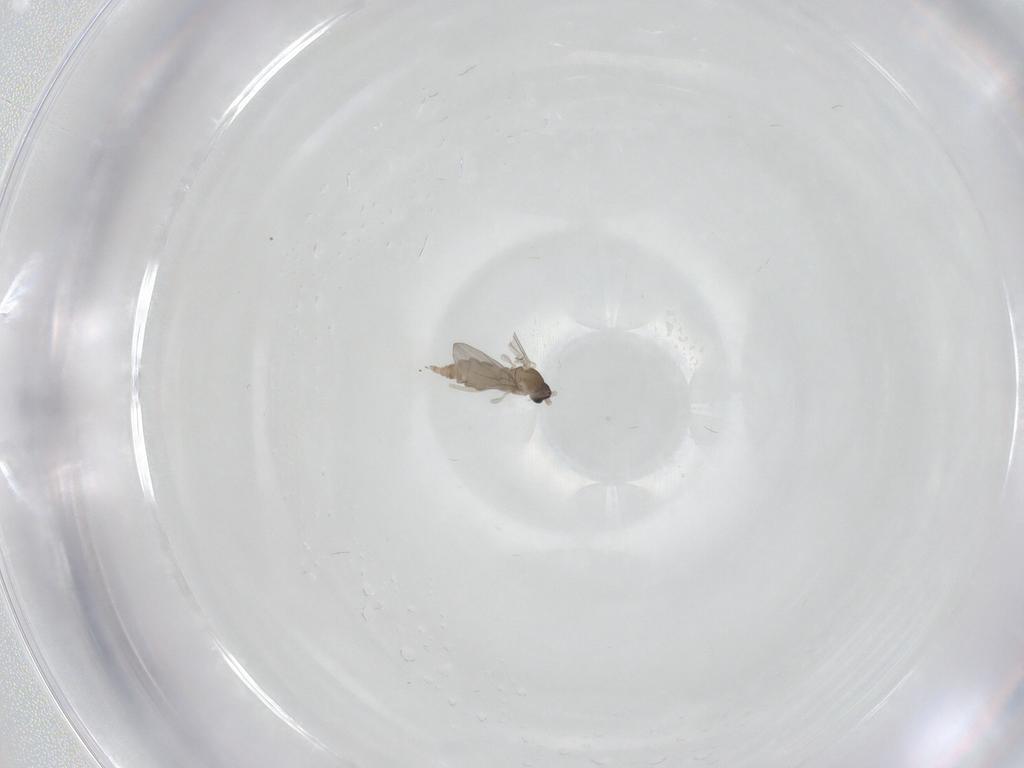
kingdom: Animalia
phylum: Arthropoda
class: Insecta
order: Diptera
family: Cecidomyiidae
